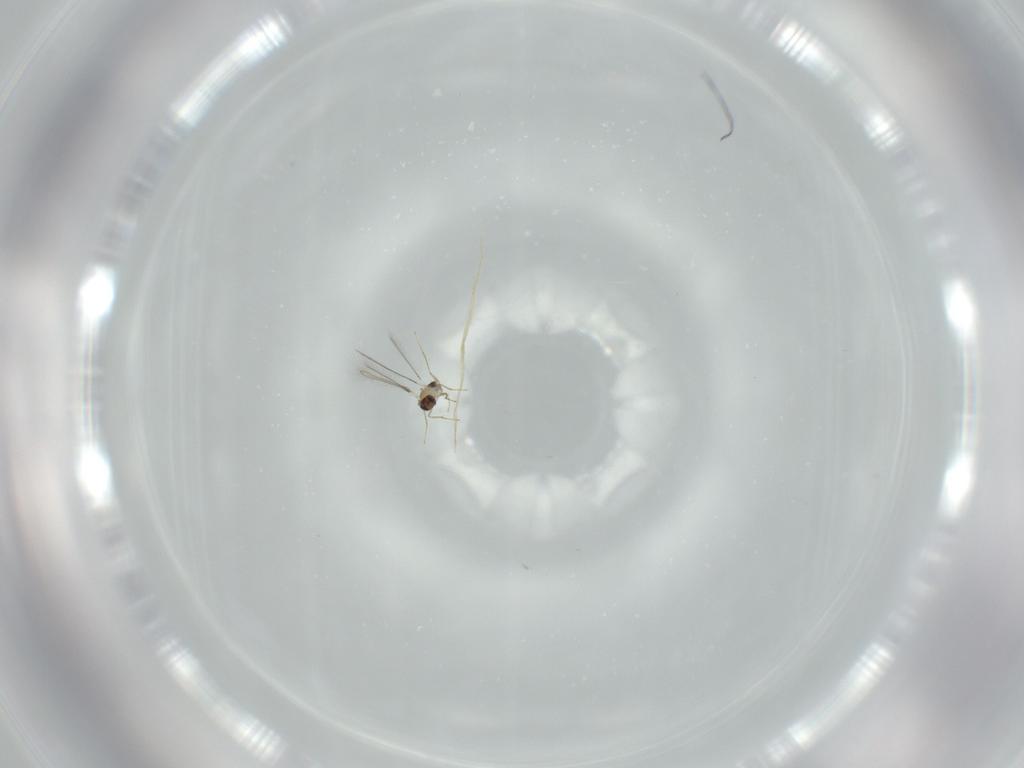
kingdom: Animalia
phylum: Arthropoda
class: Insecta
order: Hymenoptera
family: Mymaridae
